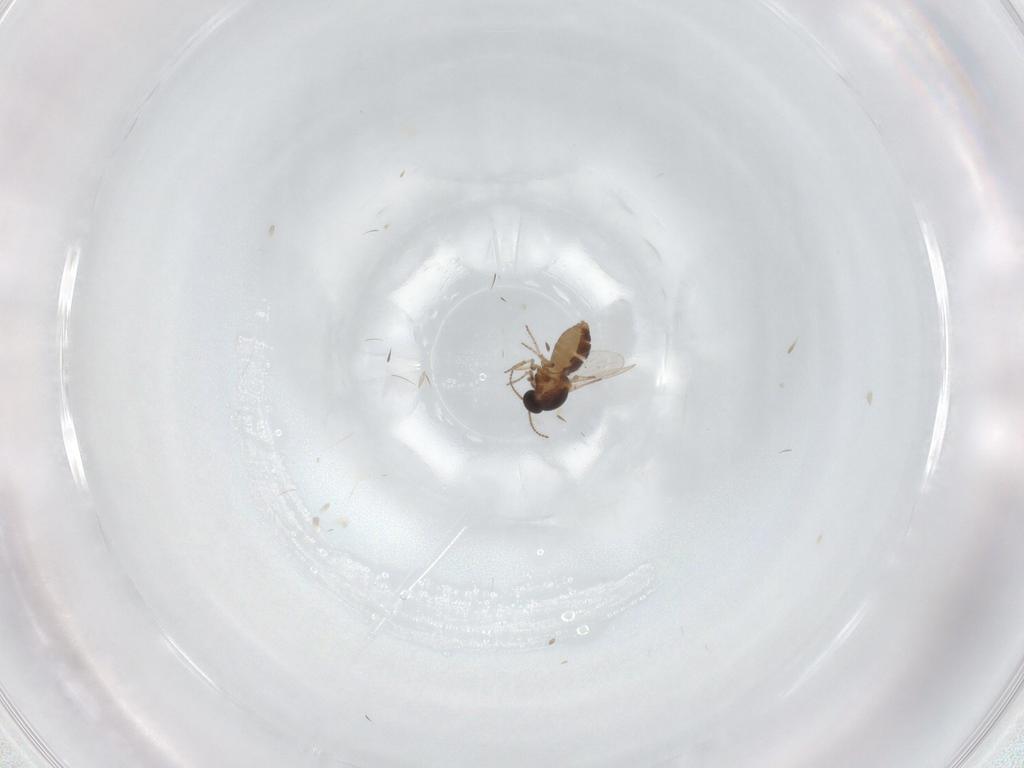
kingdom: Animalia
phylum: Arthropoda
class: Insecta
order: Diptera
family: Ceratopogonidae
